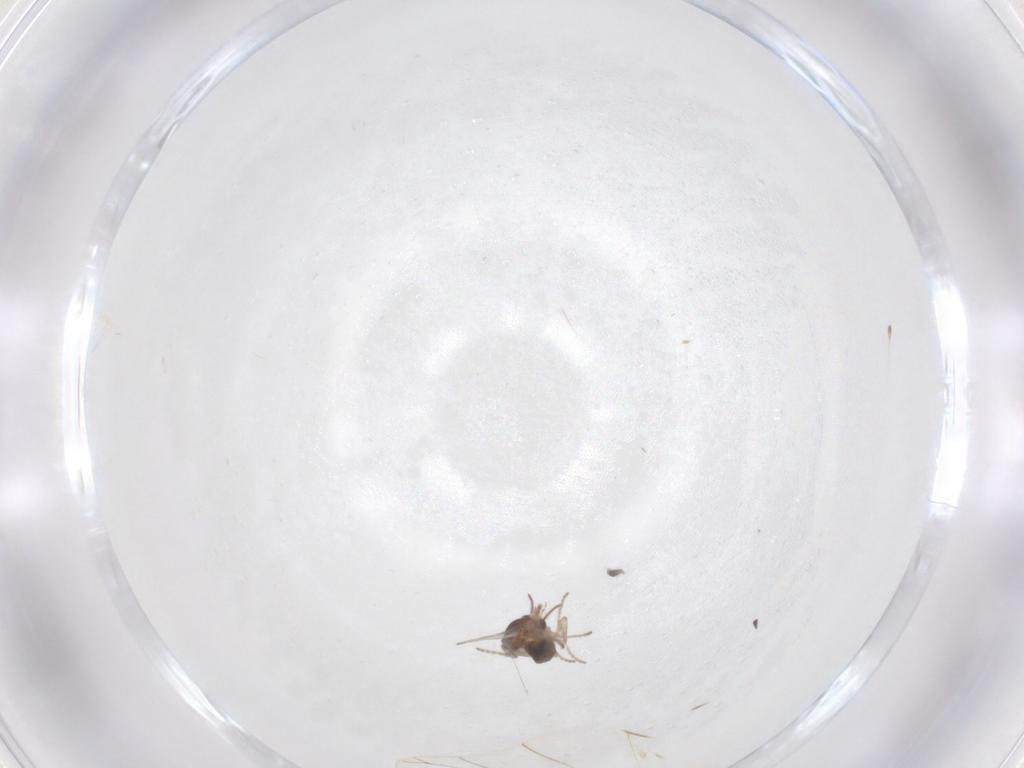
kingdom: Animalia
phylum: Arthropoda
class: Insecta
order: Diptera
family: Ceratopogonidae
